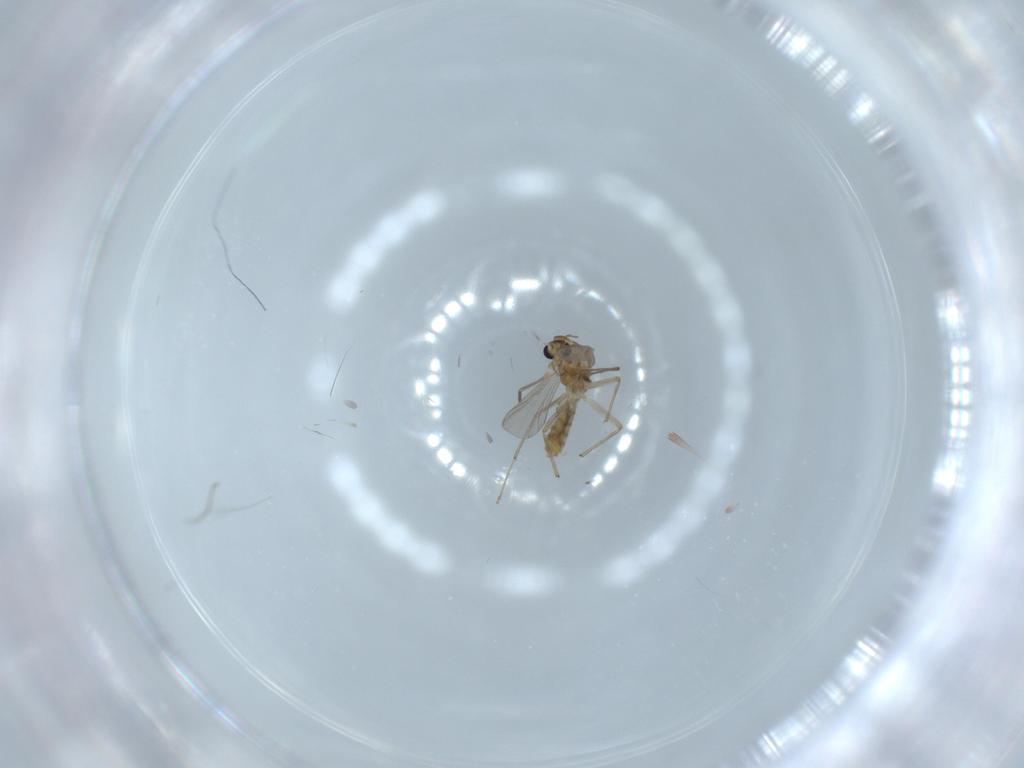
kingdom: Animalia
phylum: Arthropoda
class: Insecta
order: Diptera
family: Chironomidae
